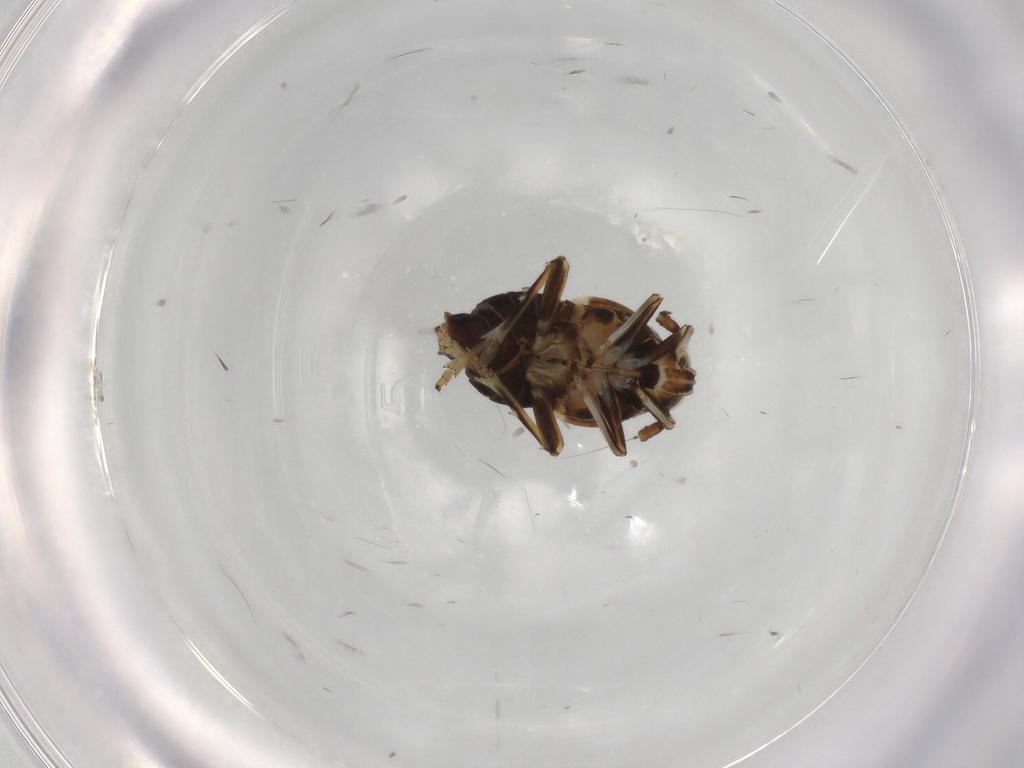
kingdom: Animalia
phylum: Arthropoda
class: Insecta
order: Hemiptera
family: Delphacidae
